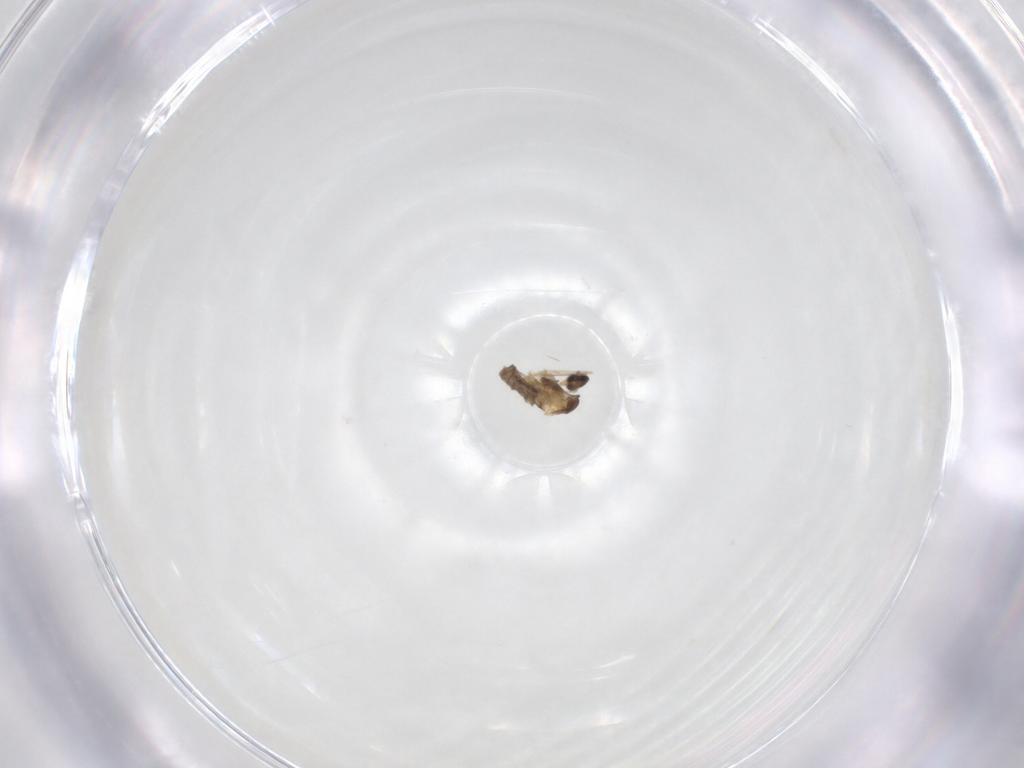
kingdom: Animalia
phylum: Arthropoda
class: Insecta
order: Diptera
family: Cecidomyiidae
